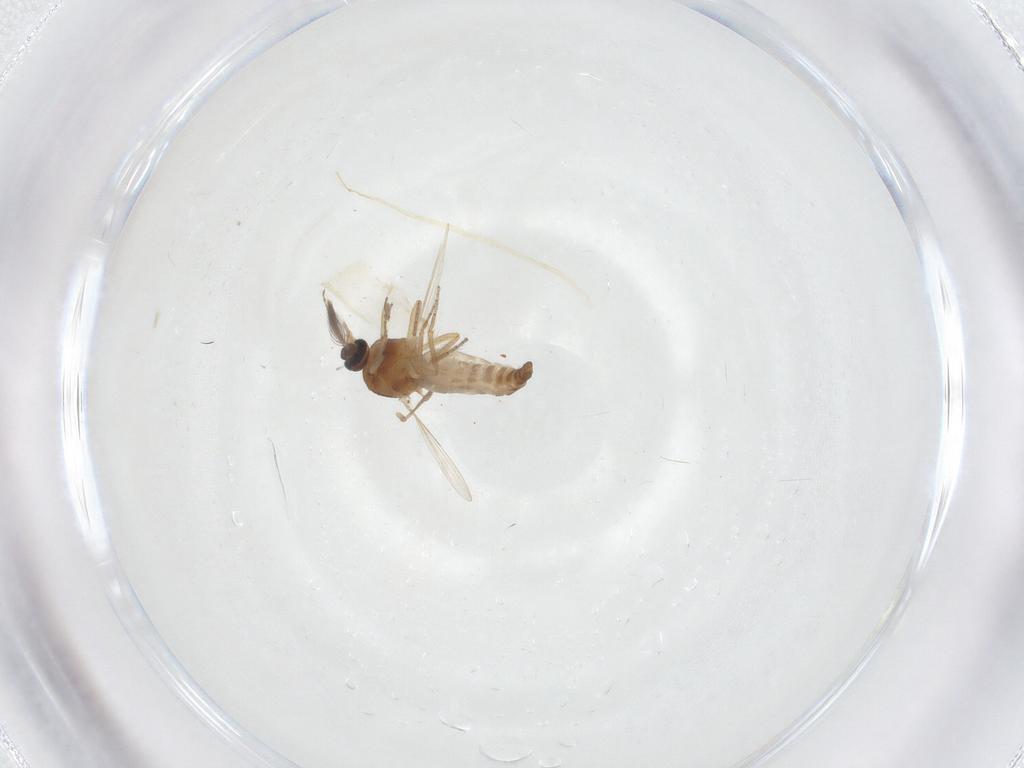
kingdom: Animalia
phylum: Arthropoda
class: Insecta
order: Diptera
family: Ceratopogonidae
